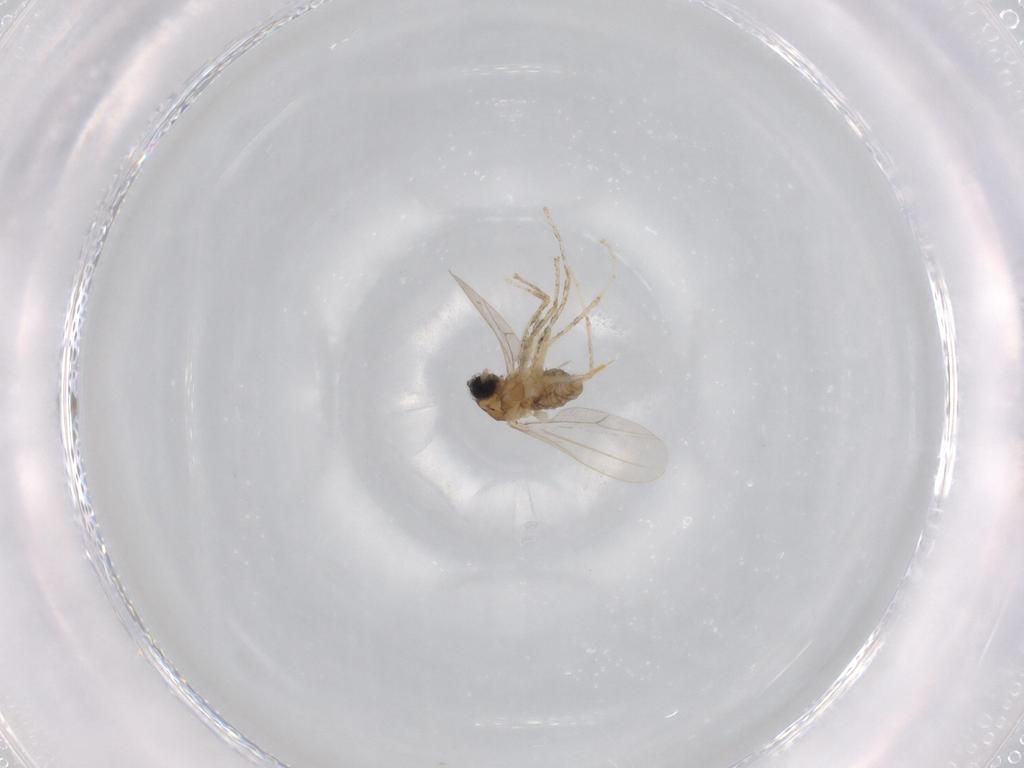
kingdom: Animalia
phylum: Arthropoda
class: Insecta
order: Diptera
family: Cecidomyiidae
